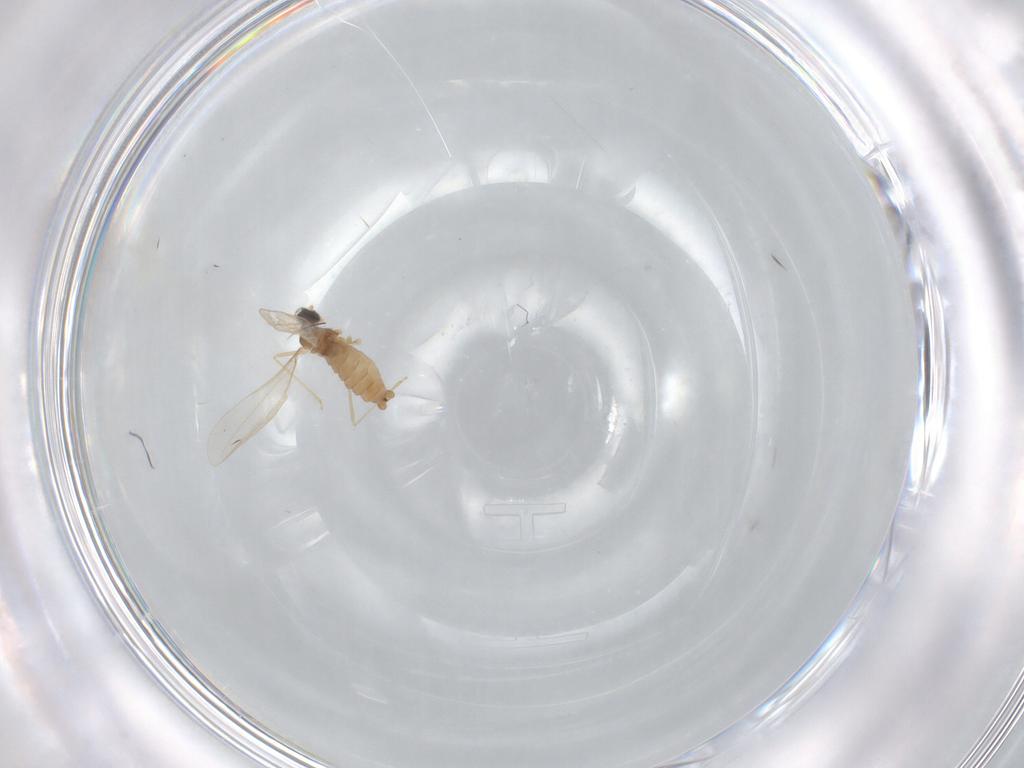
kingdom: Animalia
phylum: Arthropoda
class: Insecta
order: Diptera
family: Cecidomyiidae
